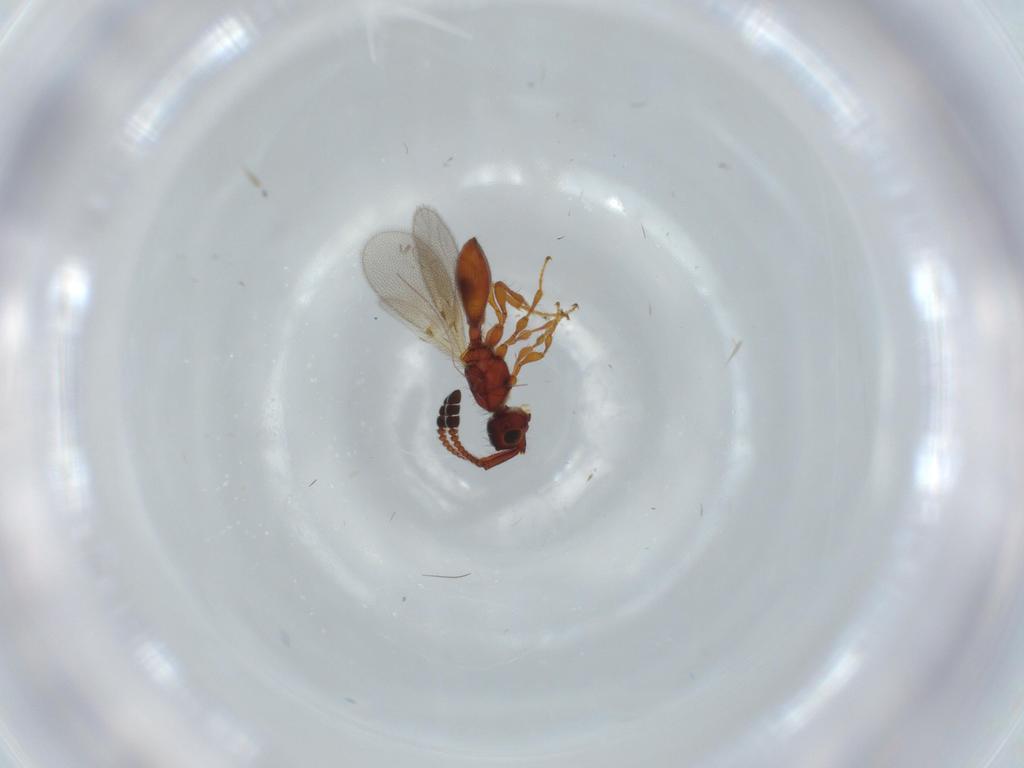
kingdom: Animalia
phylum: Arthropoda
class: Insecta
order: Hymenoptera
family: Diapriidae
